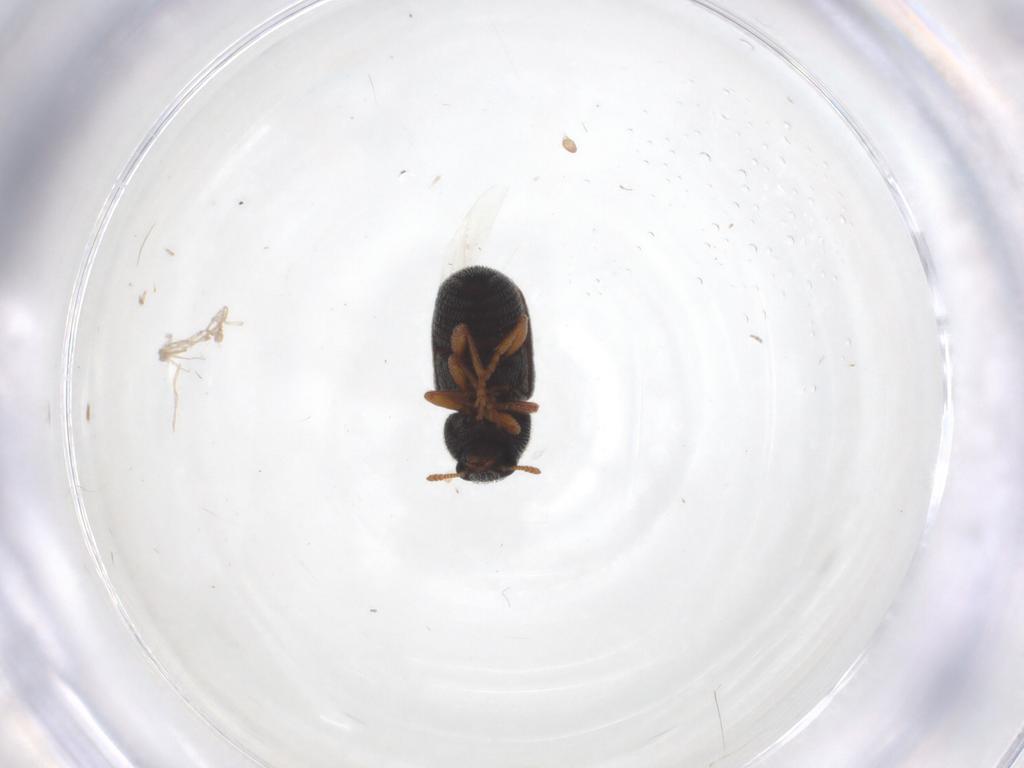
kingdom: Animalia
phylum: Arthropoda
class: Insecta
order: Coleoptera
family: Anthribidae
